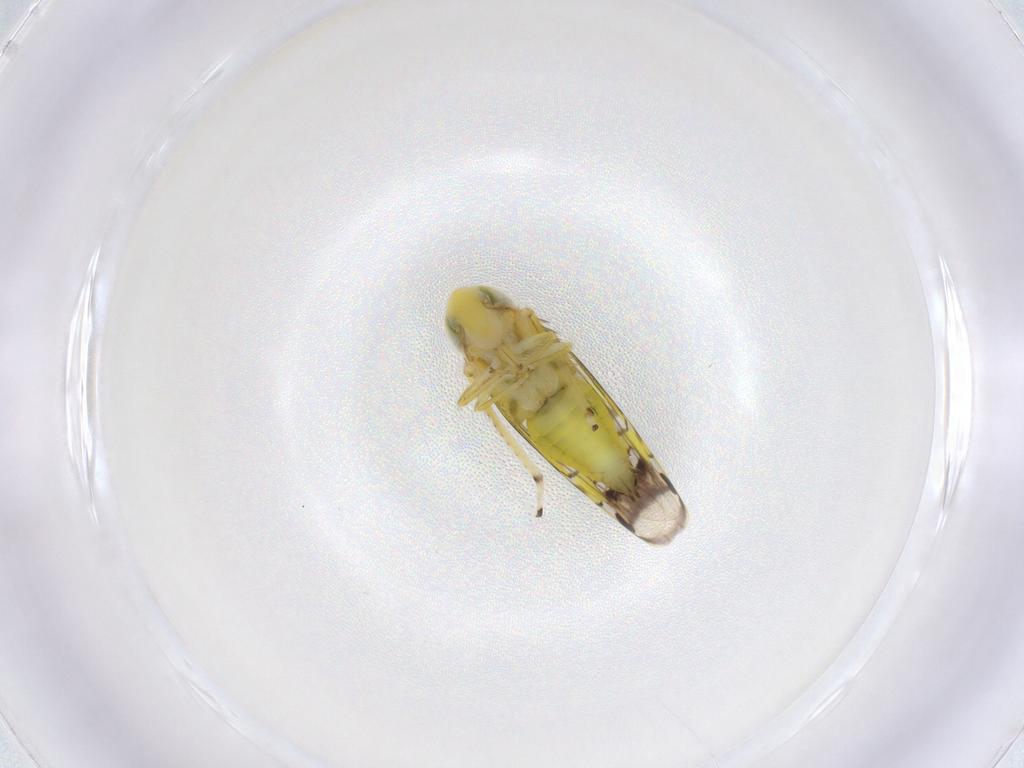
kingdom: Animalia
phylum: Arthropoda
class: Insecta
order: Hemiptera
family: Cicadellidae
